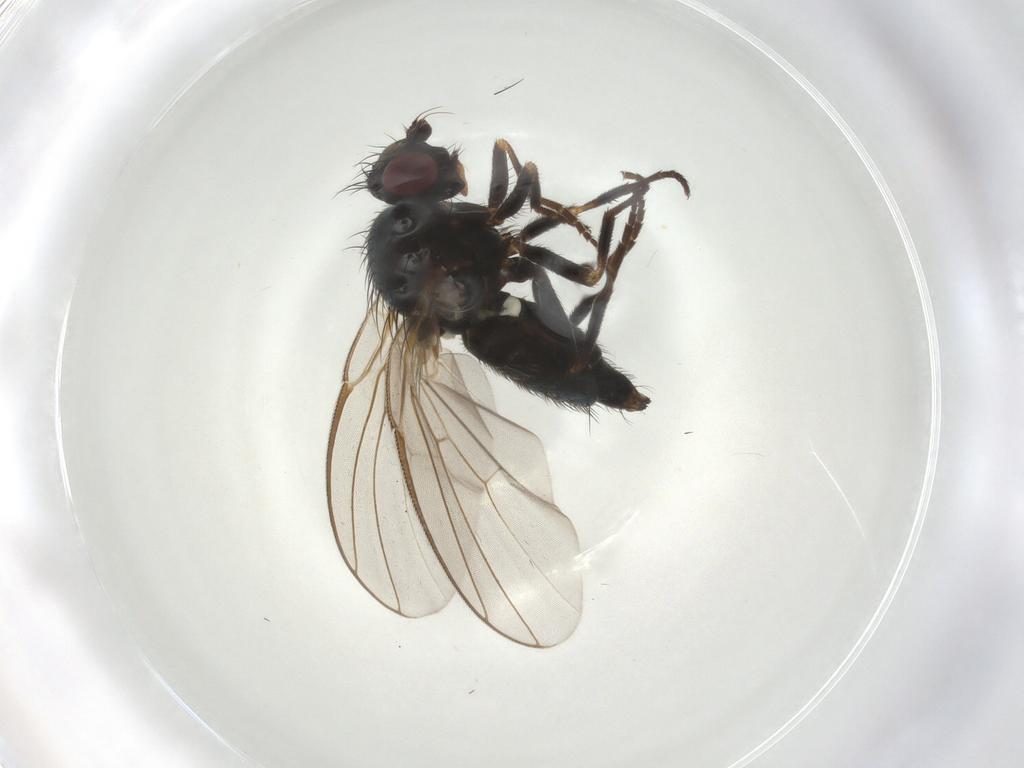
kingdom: Animalia
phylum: Arthropoda
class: Insecta
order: Diptera
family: Agromyzidae
